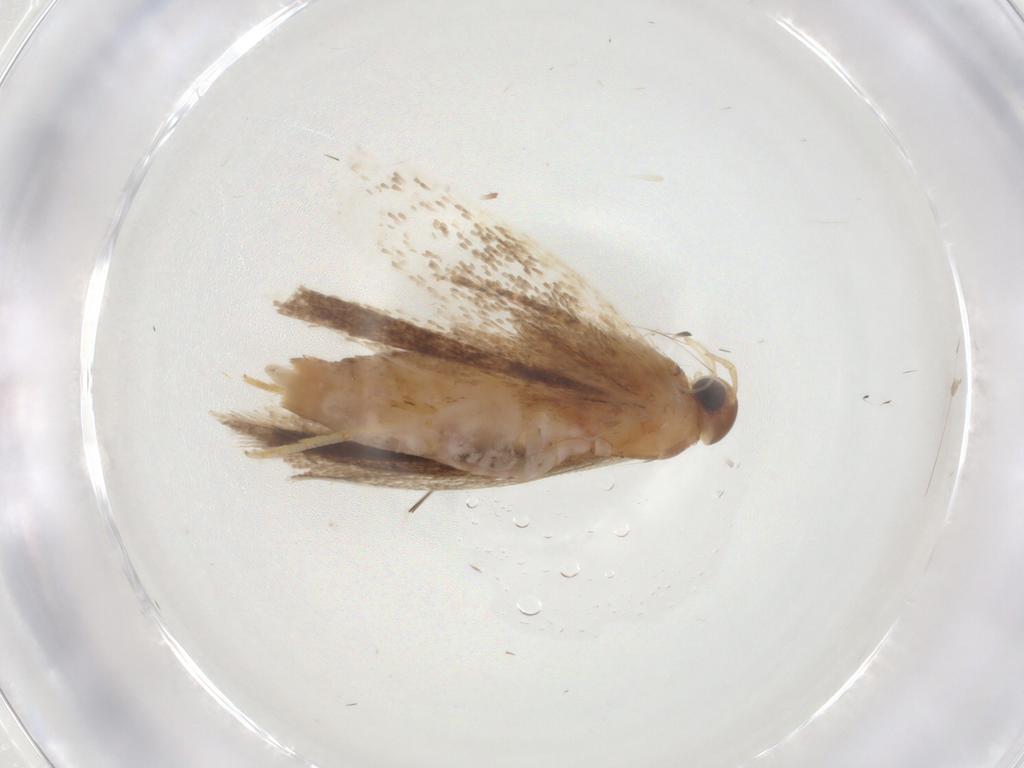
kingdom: Animalia
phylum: Arthropoda
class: Insecta
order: Lepidoptera
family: Gelechiidae
